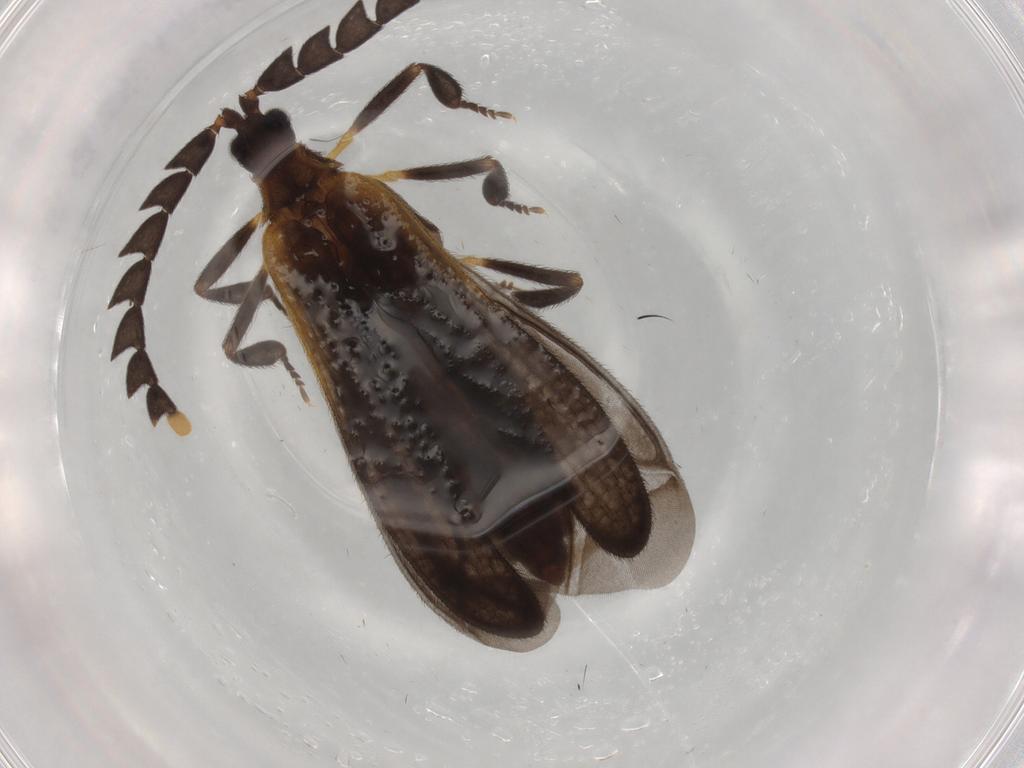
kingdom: Animalia
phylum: Arthropoda
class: Insecta
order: Coleoptera
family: Lycidae
